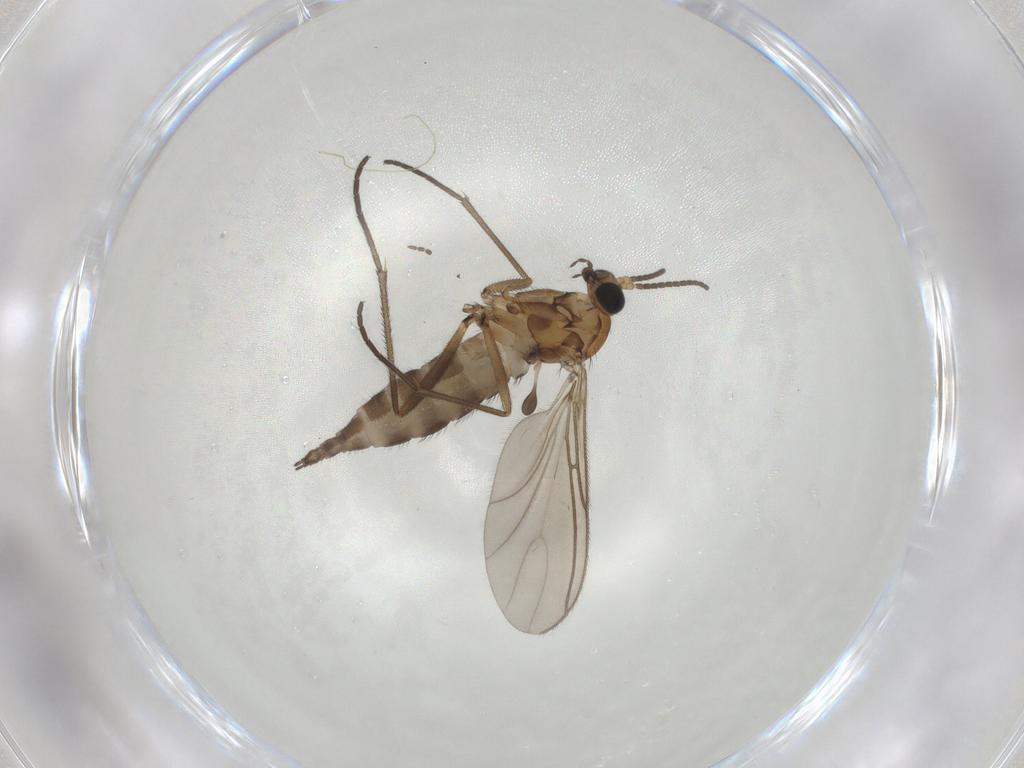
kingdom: Animalia
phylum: Arthropoda
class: Insecta
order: Diptera
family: Sciaridae
